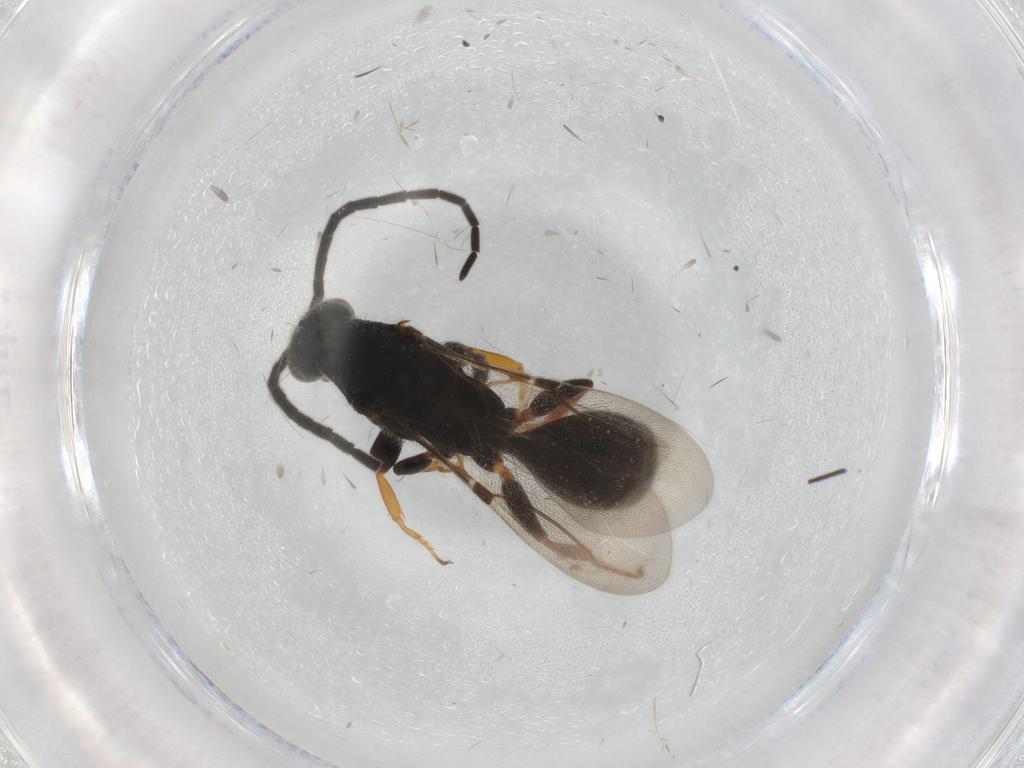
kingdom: Animalia
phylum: Arthropoda
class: Insecta
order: Hymenoptera
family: Bethylidae
